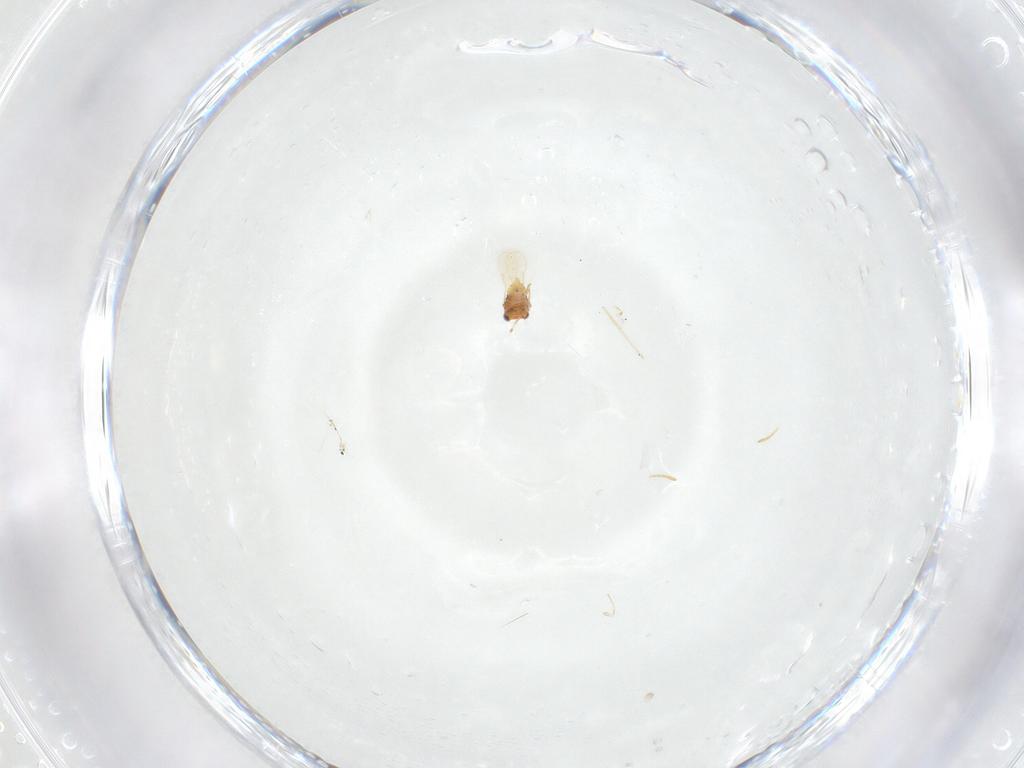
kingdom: Animalia
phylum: Arthropoda
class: Insecta
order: Hymenoptera
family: Aphelinidae
